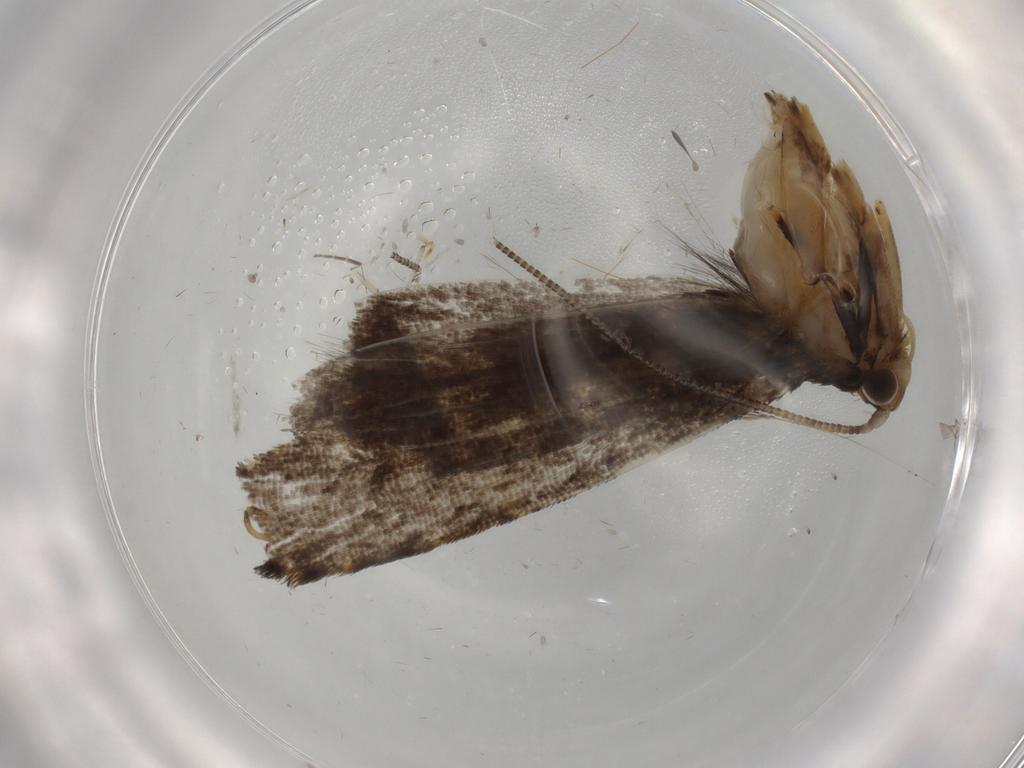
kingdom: Animalia
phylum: Arthropoda
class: Insecta
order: Lepidoptera
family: Tineidae
